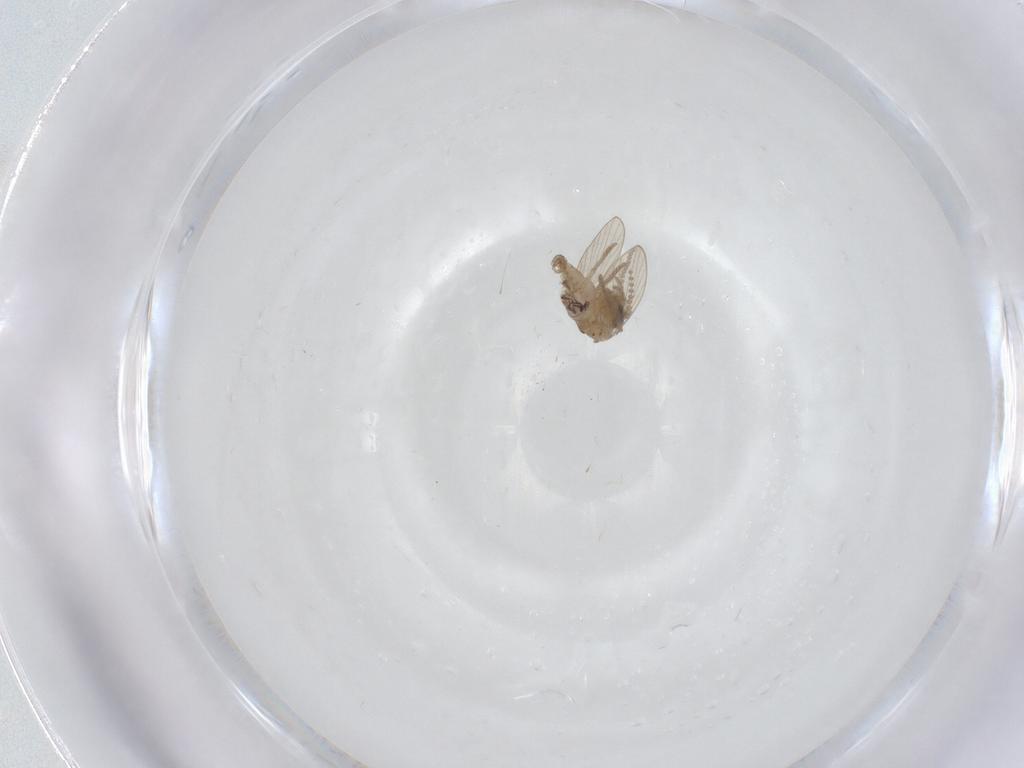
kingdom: Animalia
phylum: Arthropoda
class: Insecta
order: Diptera
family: Psychodidae
